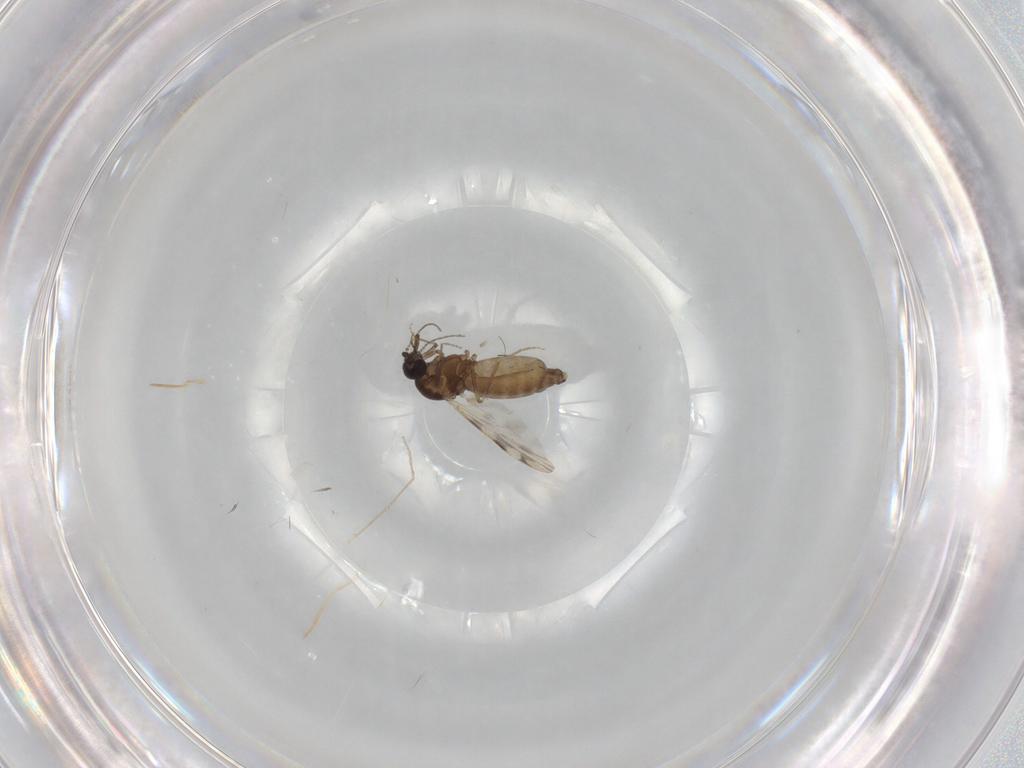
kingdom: Animalia
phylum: Arthropoda
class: Insecta
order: Diptera
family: Ceratopogonidae
